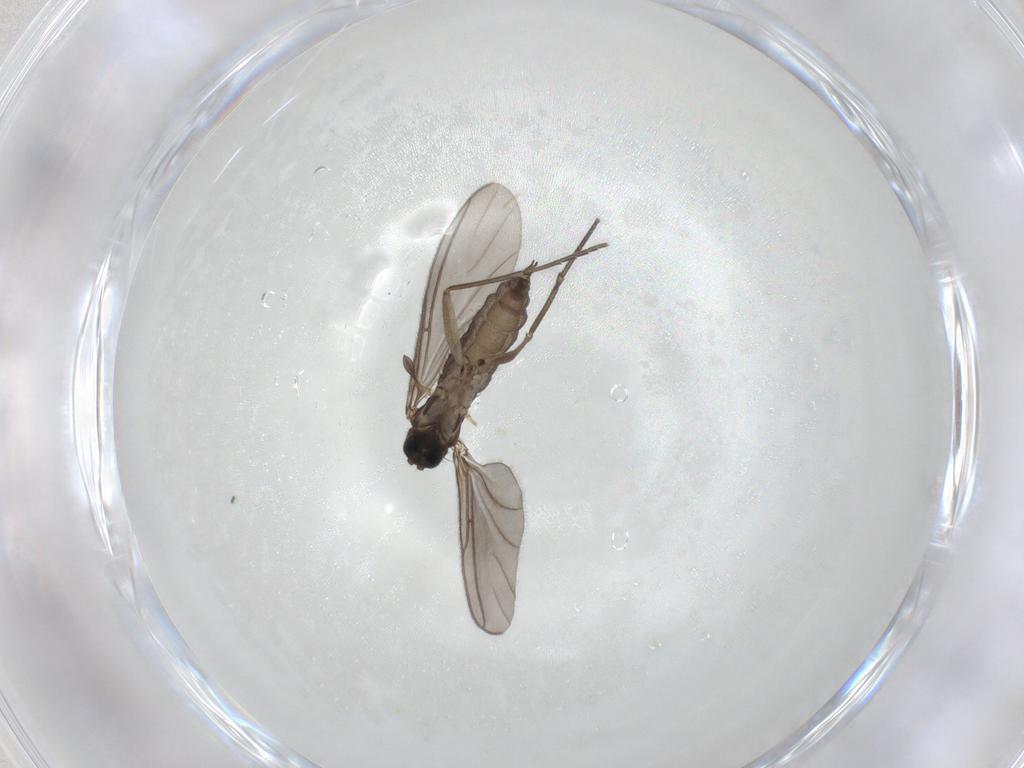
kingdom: Animalia
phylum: Arthropoda
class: Insecta
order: Diptera
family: Sciaridae
